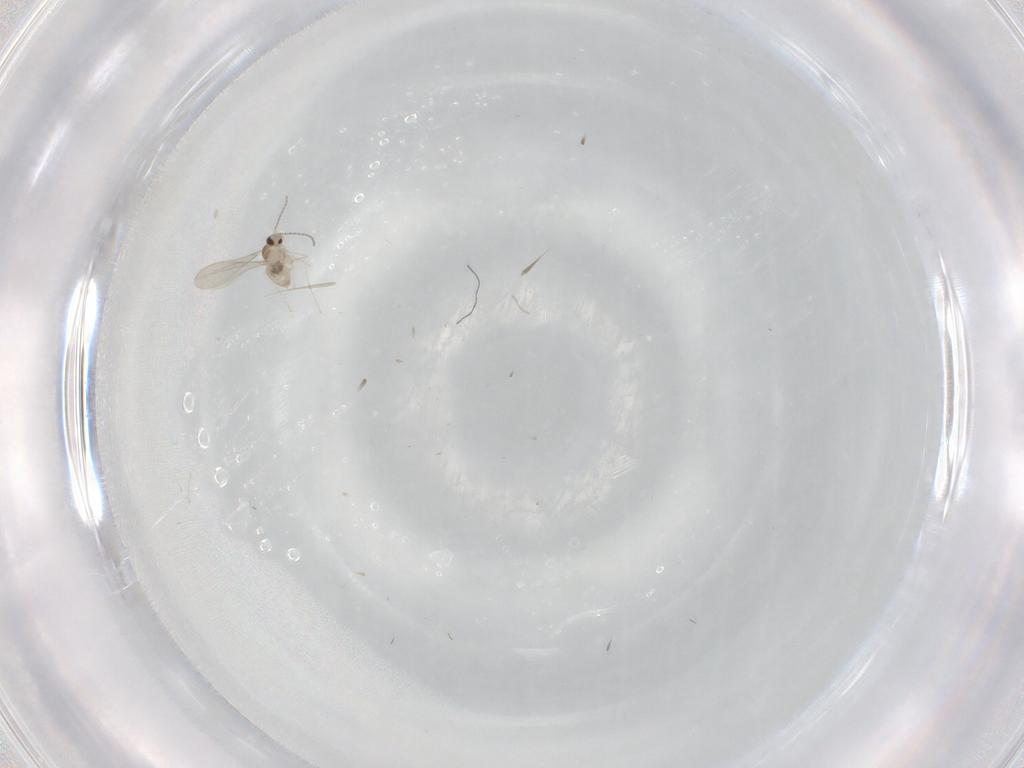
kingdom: Animalia
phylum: Arthropoda
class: Insecta
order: Diptera
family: Cecidomyiidae
